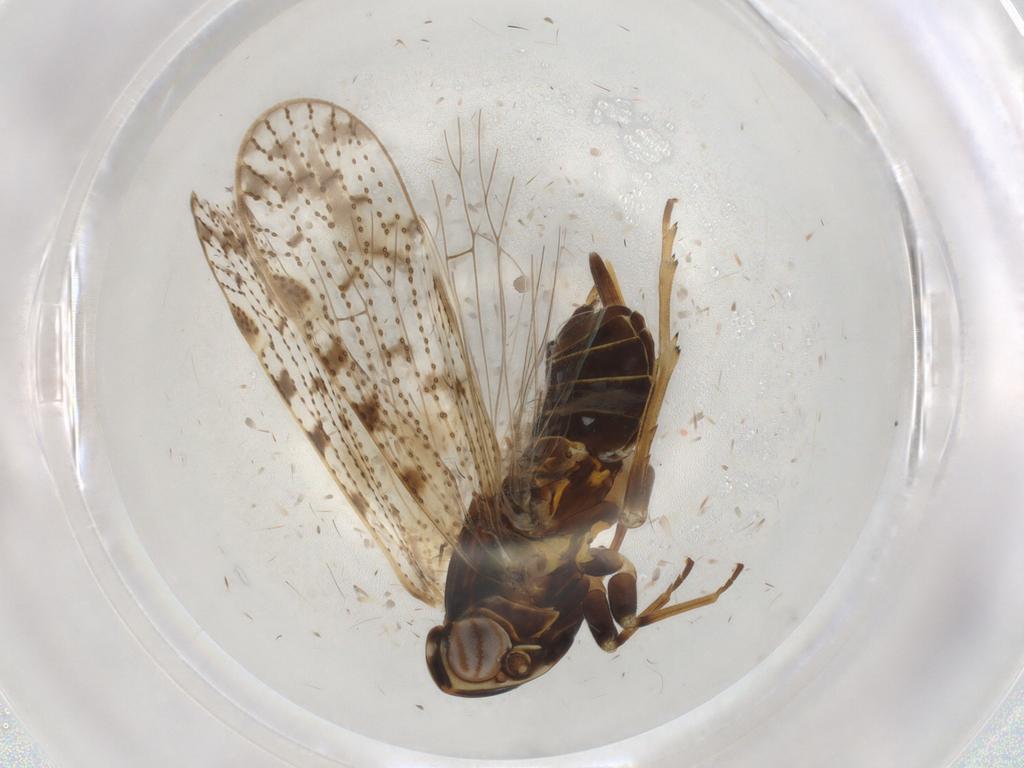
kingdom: Animalia
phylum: Arthropoda
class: Insecta
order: Hemiptera
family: Cixiidae
